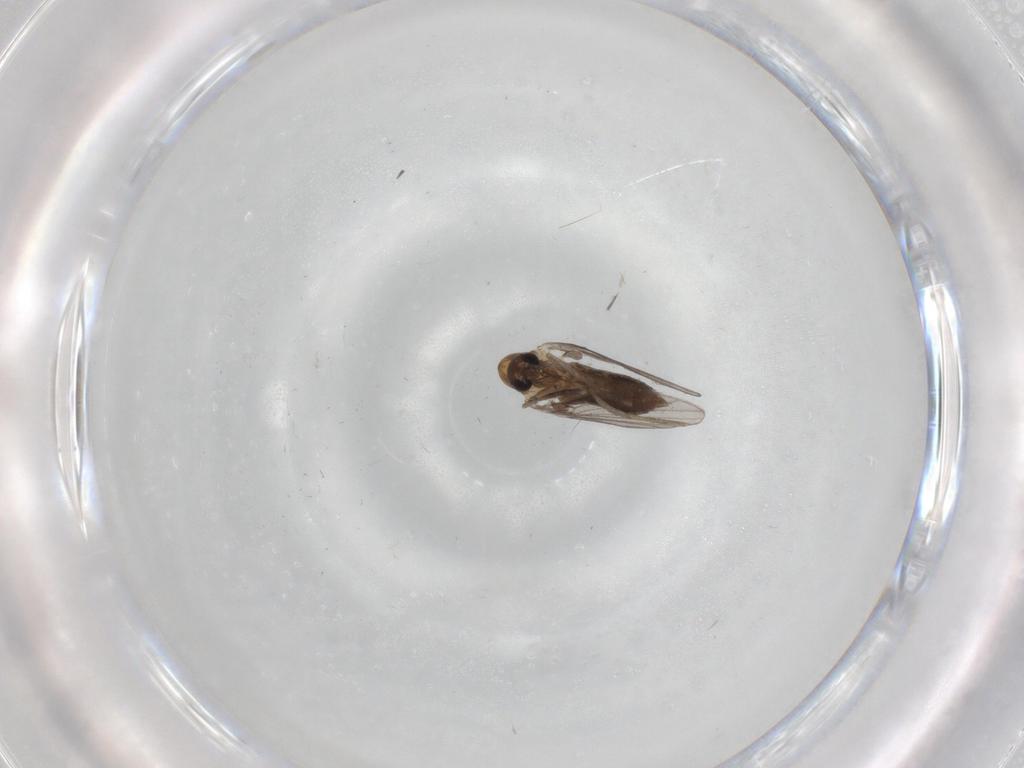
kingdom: Animalia
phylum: Arthropoda
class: Insecta
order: Diptera
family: Psychodidae
